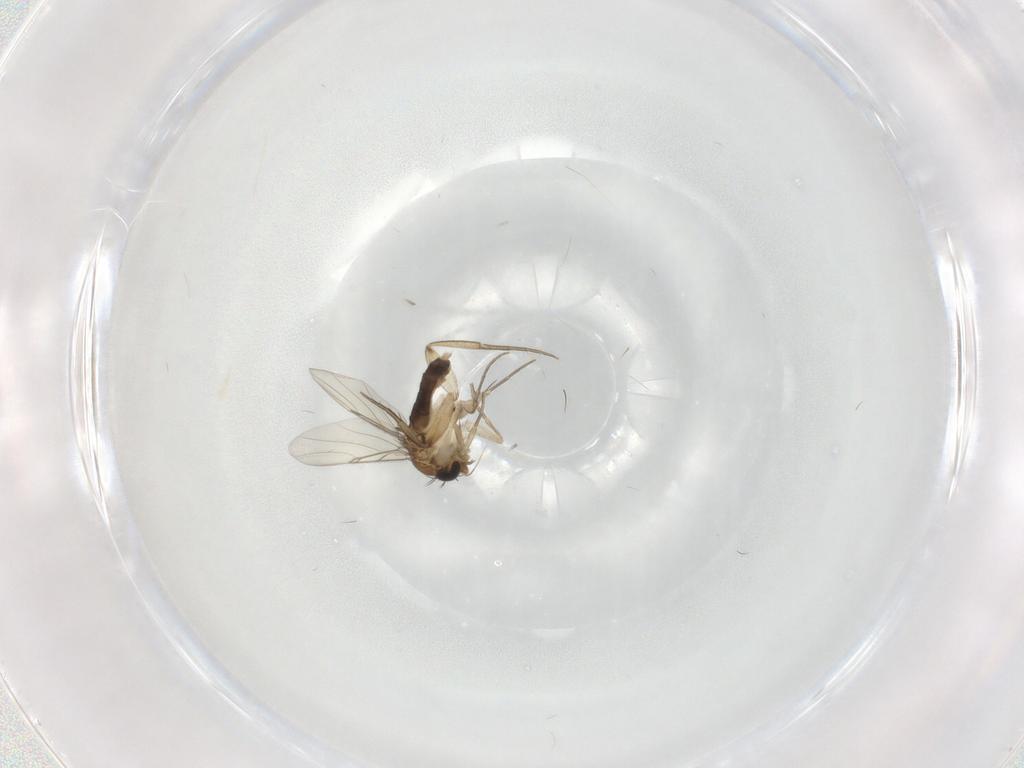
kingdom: Animalia
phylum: Arthropoda
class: Insecta
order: Diptera
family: Phoridae
